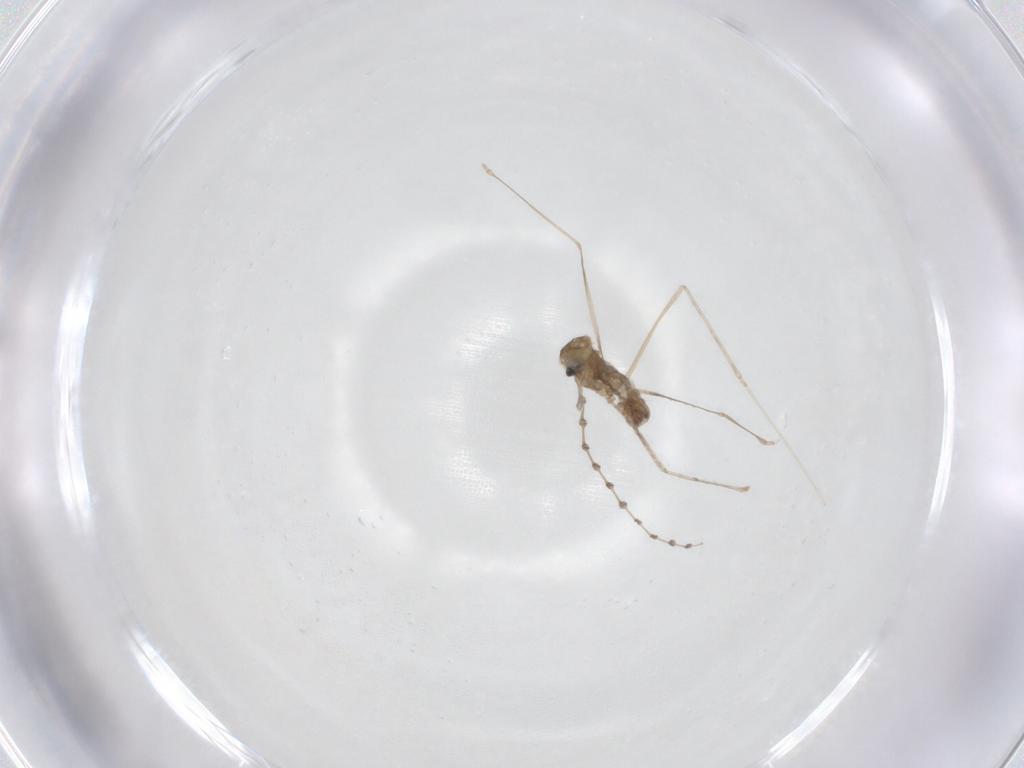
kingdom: Animalia
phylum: Arthropoda
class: Insecta
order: Diptera
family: Cecidomyiidae
